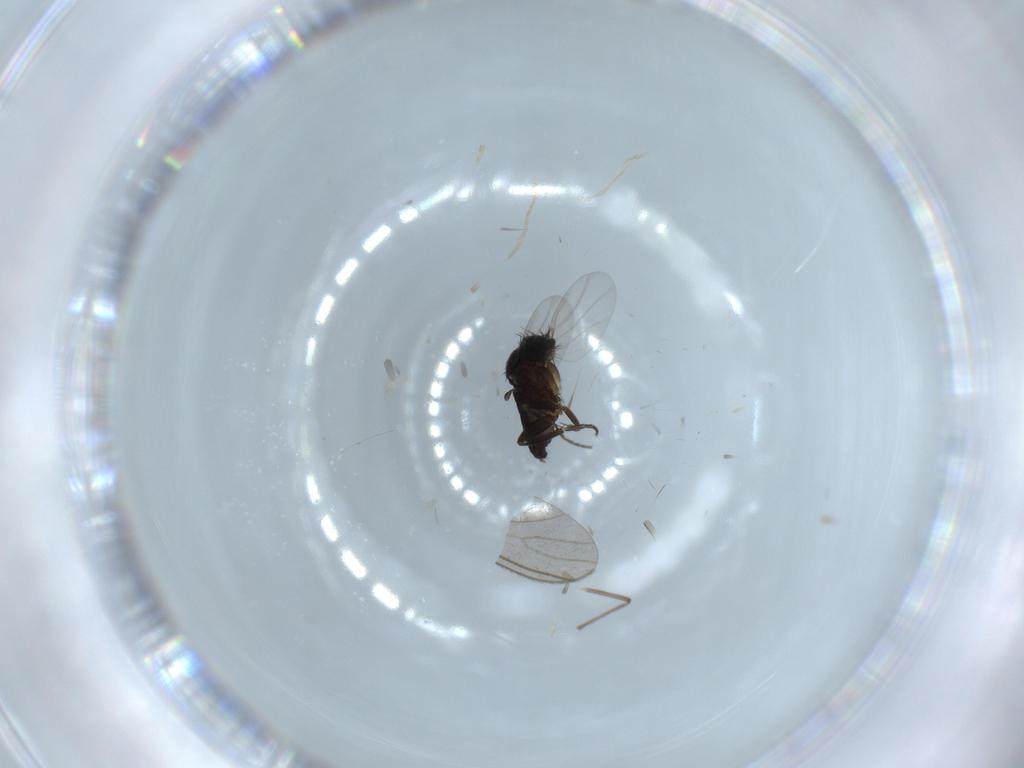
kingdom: Animalia
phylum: Arthropoda
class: Insecta
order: Diptera
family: Chironomidae
